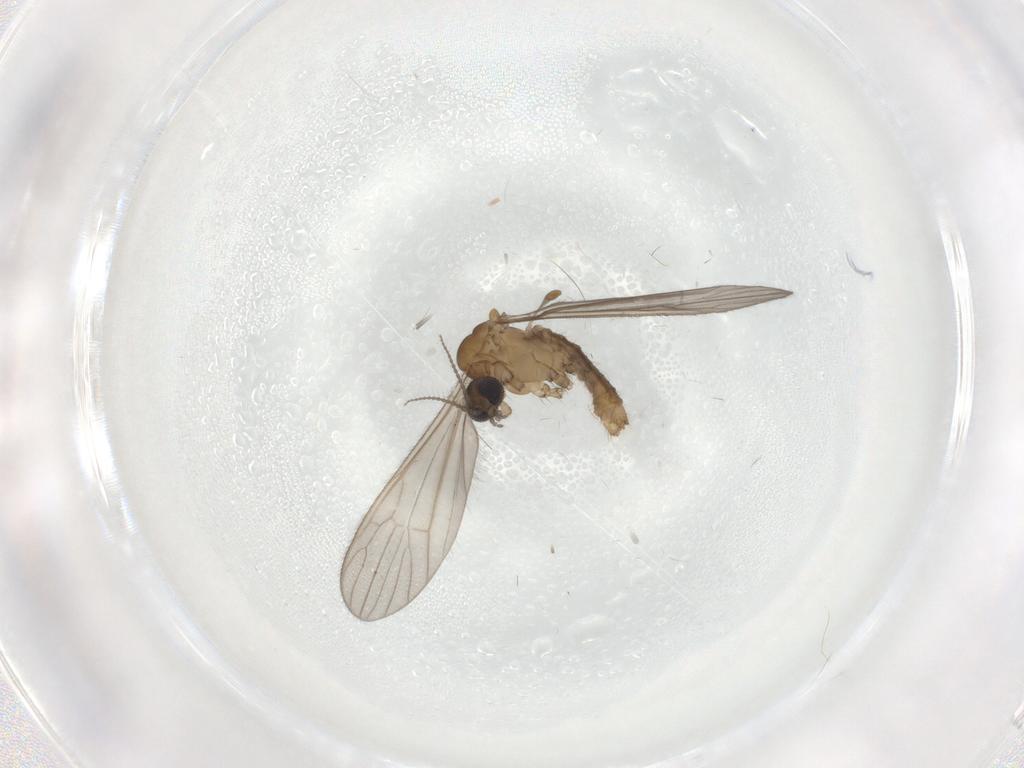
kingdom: Animalia
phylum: Arthropoda
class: Insecta
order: Diptera
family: Limoniidae
